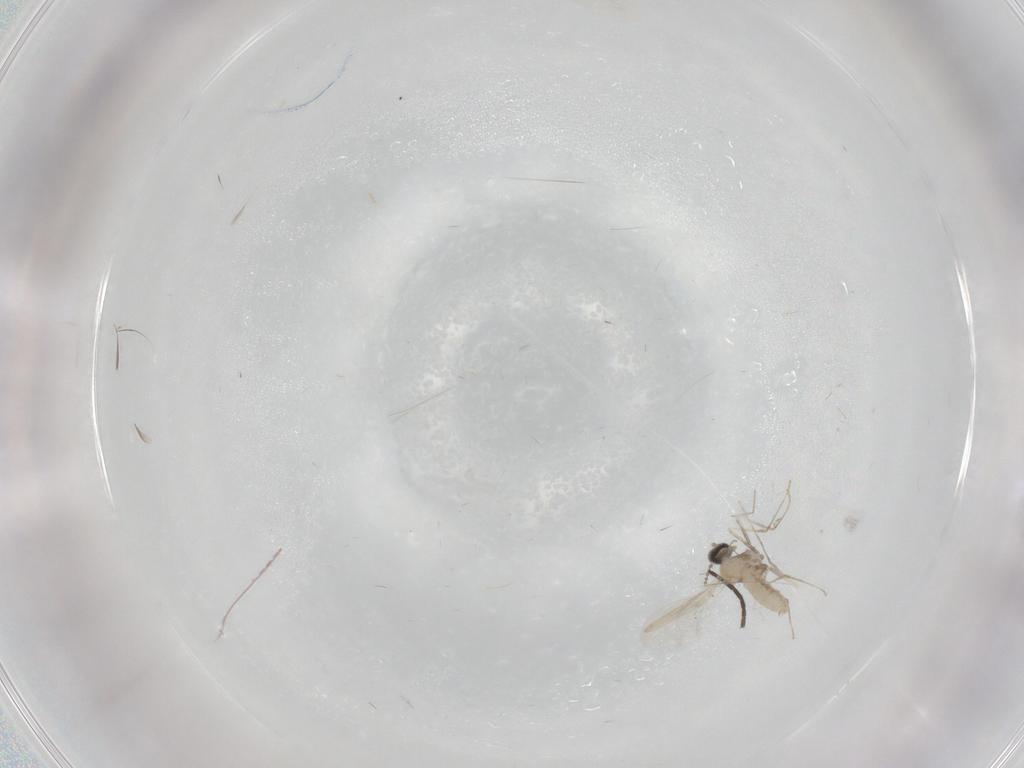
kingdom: Animalia
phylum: Arthropoda
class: Insecta
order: Diptera
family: Cecidomyiidae
